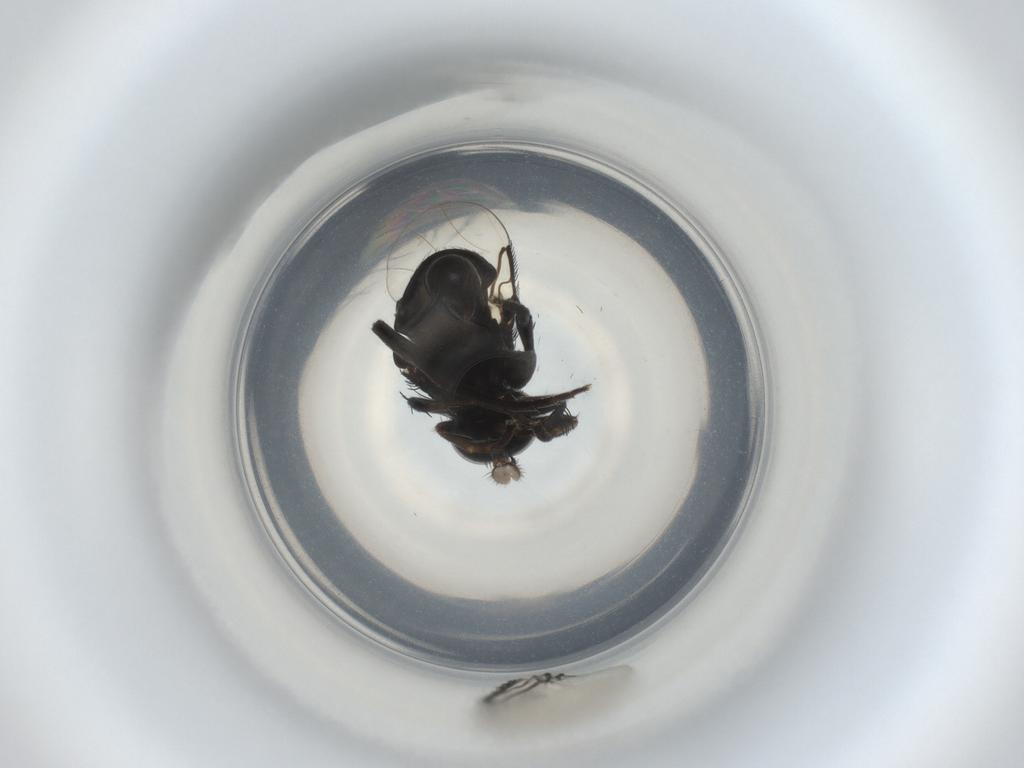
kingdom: Animalia
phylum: Arthropoda
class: Insecta
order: Diptera
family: Phoridae
